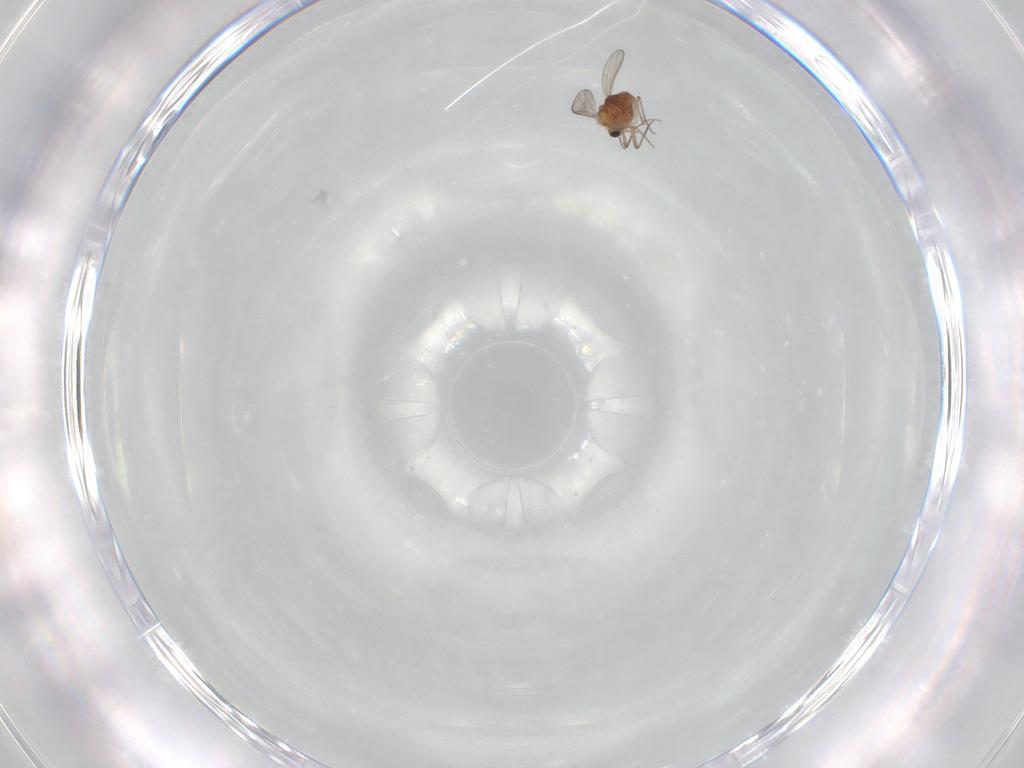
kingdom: Animalia
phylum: Arthropoda
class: Insecta
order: Diptera
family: Chironomidae
